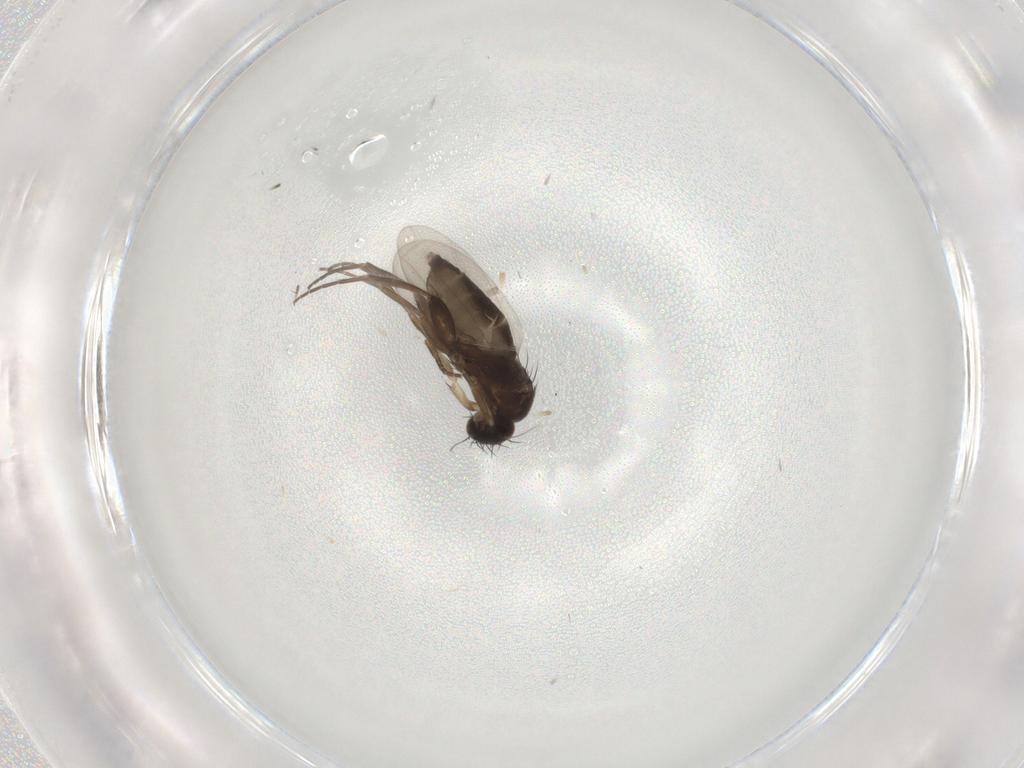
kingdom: Animalia
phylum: Arthropoda
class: Insecta
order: Diptera
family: Phoridae
